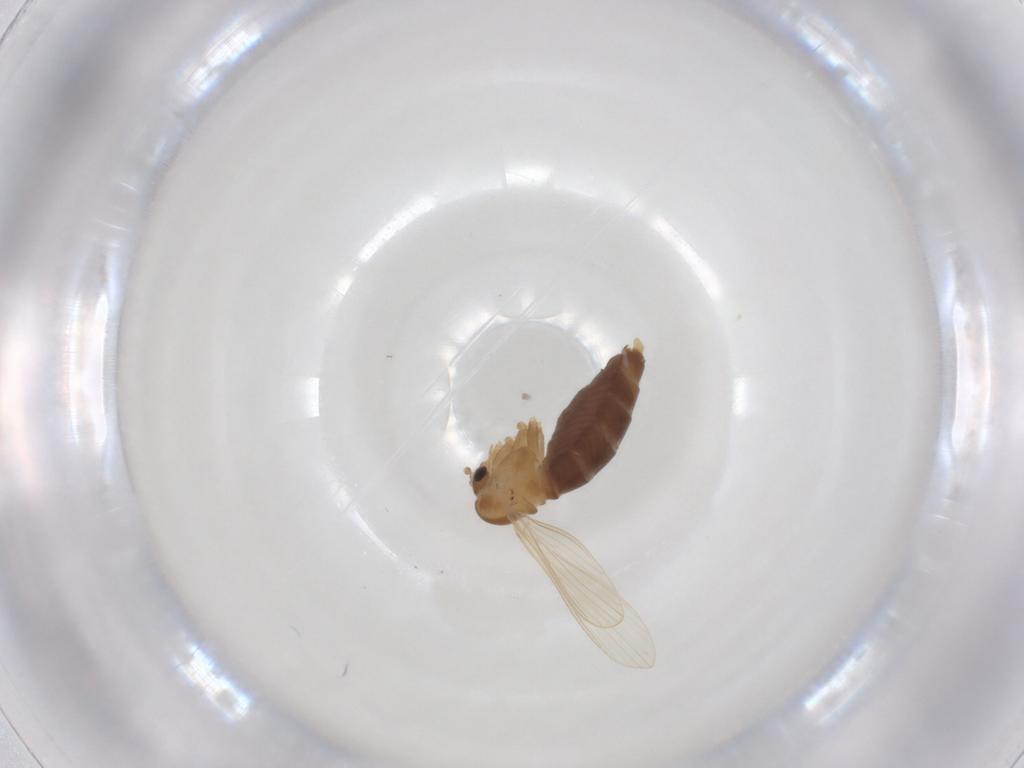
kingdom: Animalia
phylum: Arthropoda
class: Insecta
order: Diptera
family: Psychodidae
